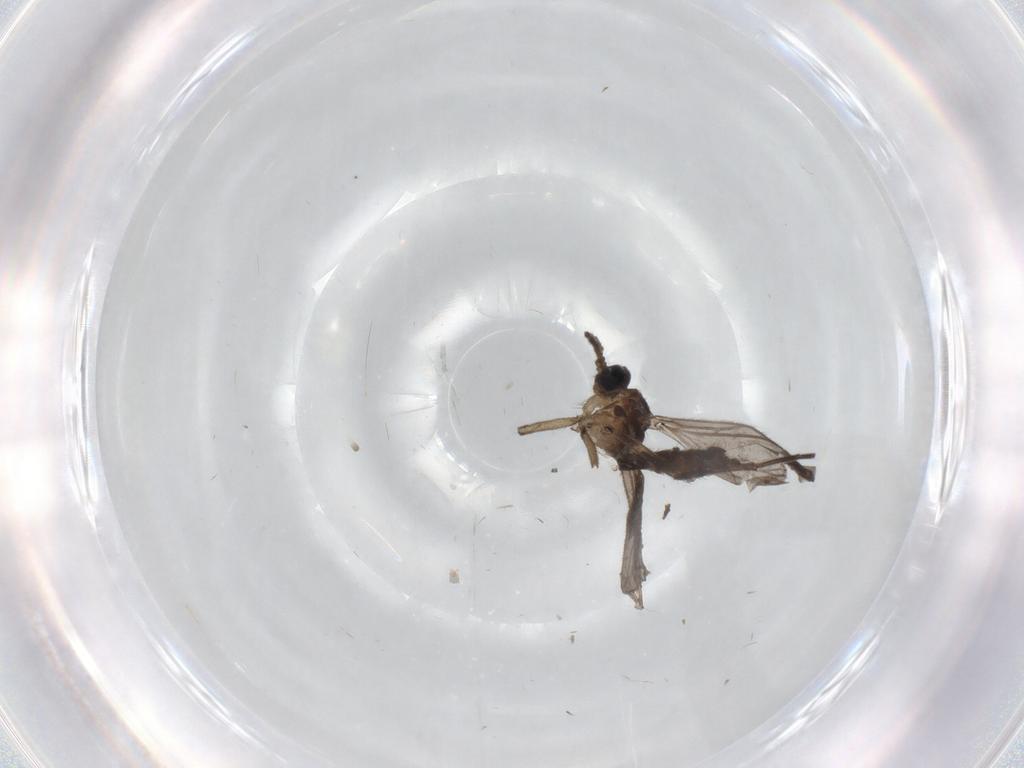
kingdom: Animalia
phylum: Arthropoda
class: Insecta
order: Diptera
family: Sciaridae
